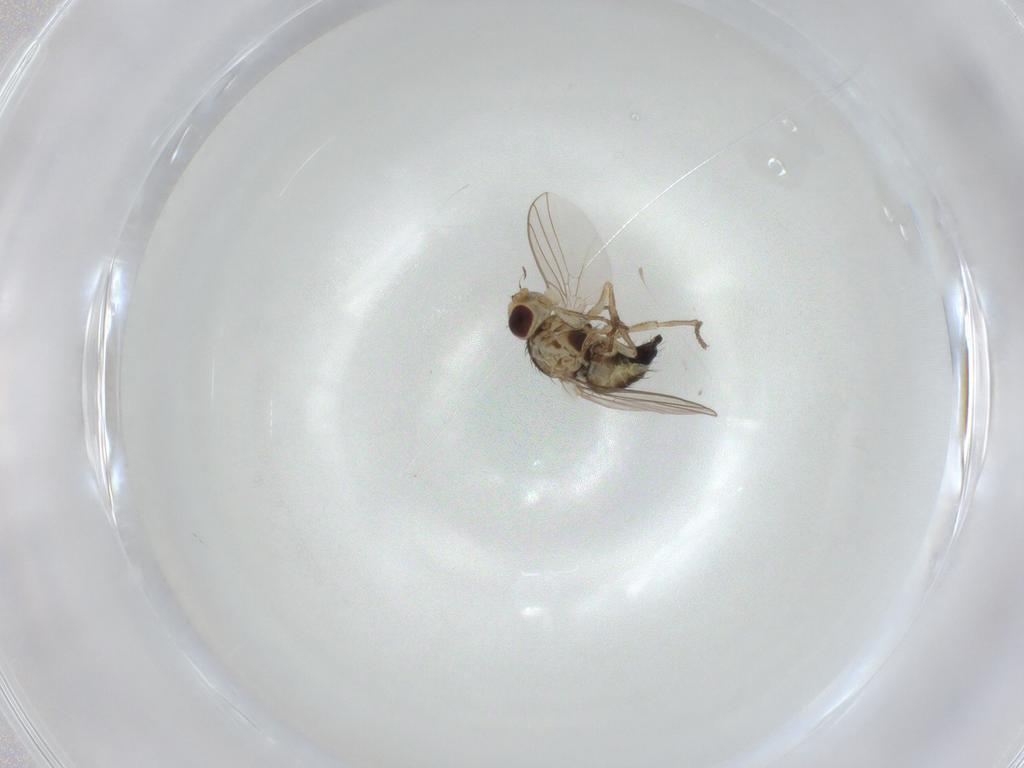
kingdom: Animalia
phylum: Arthropoda
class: Insecta
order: Diptera
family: Agromyzidae
